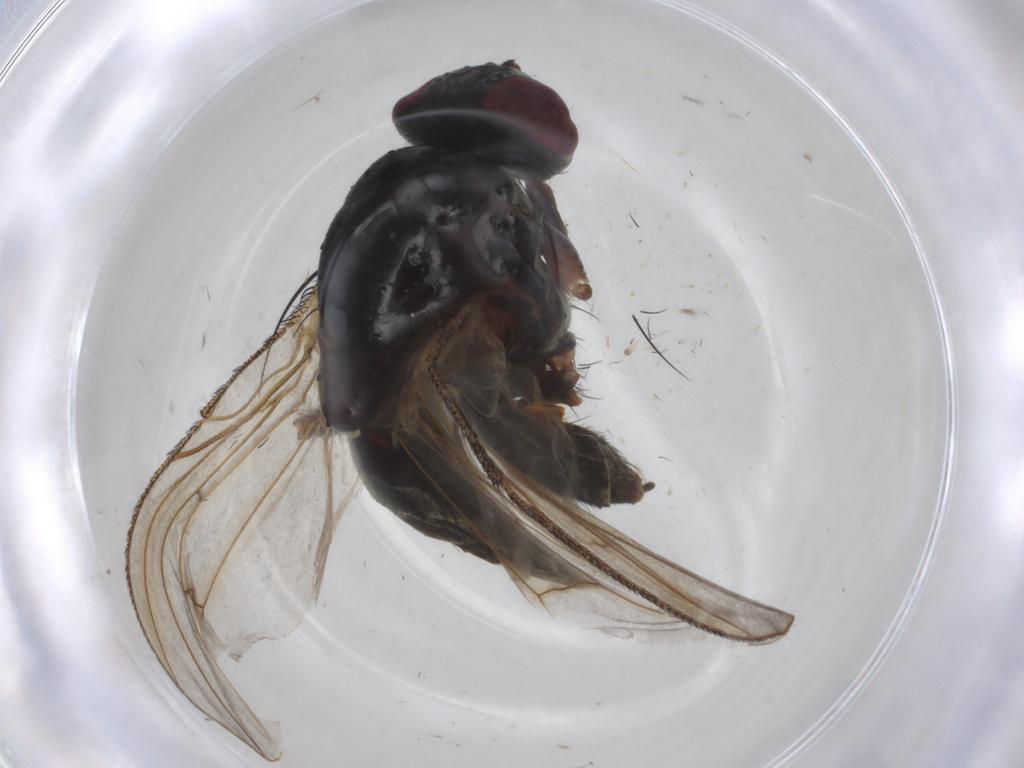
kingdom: Animalia
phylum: Arthropoda
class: Insecta
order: Diptera
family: Muscidae
